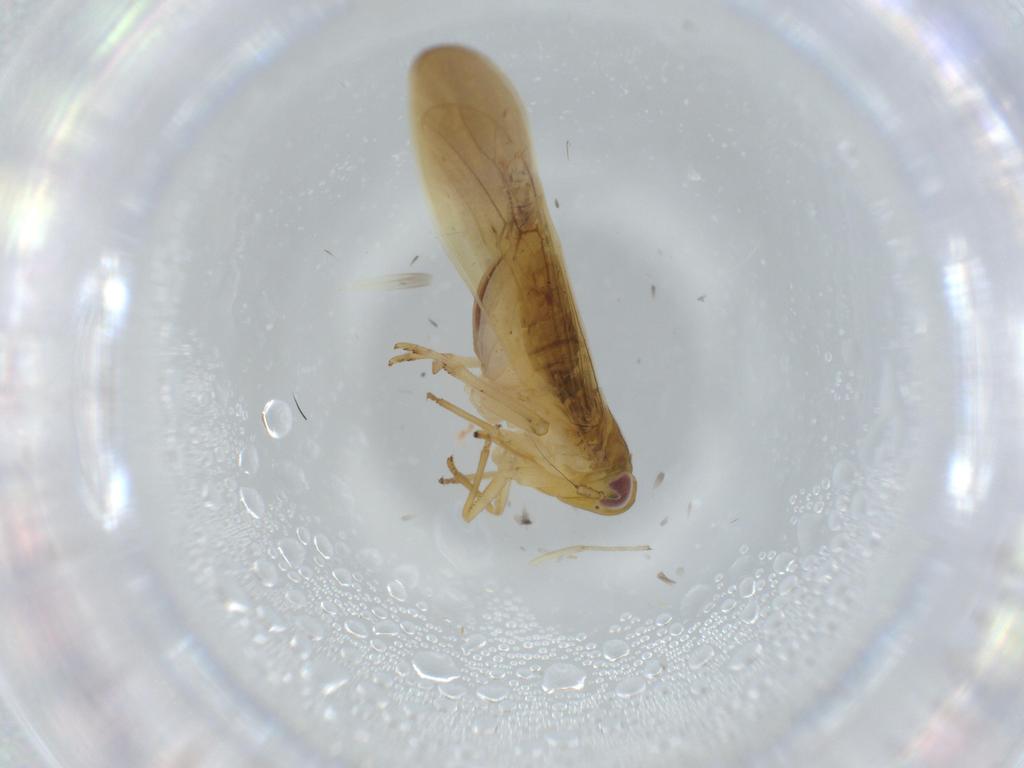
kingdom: Animalia
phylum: Arthropoda
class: Insecta
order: Hemiptera
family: Delphacidae
